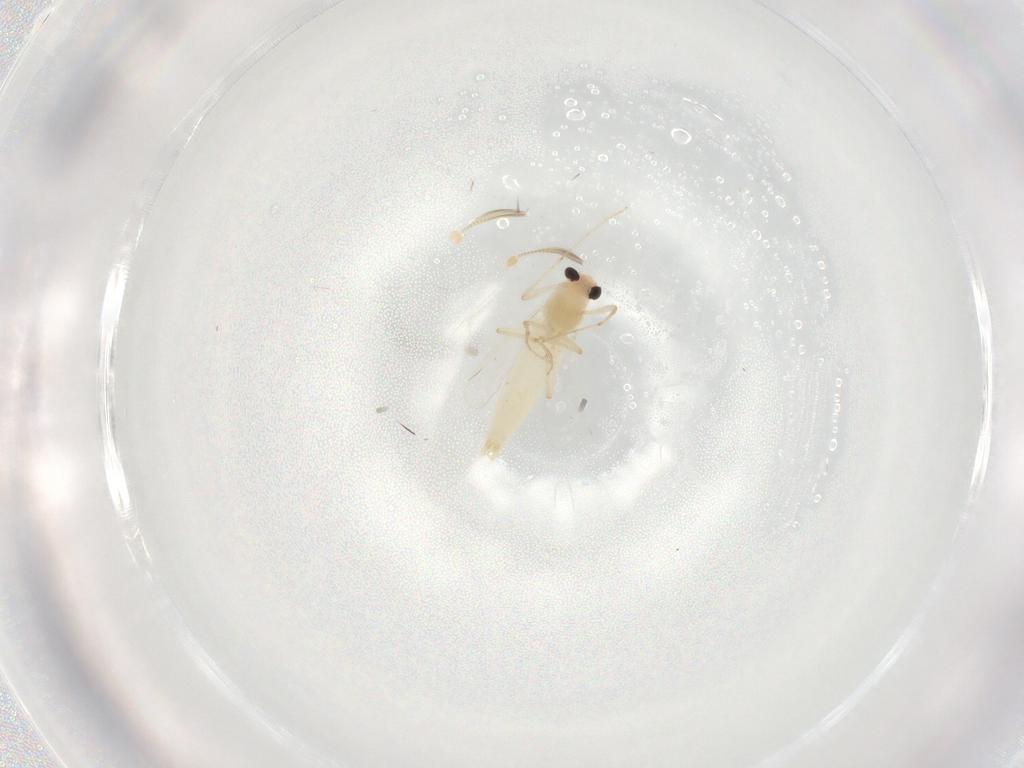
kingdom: Animalia
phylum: Arthropoda
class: Insecta
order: Diptera
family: Chironomidae
